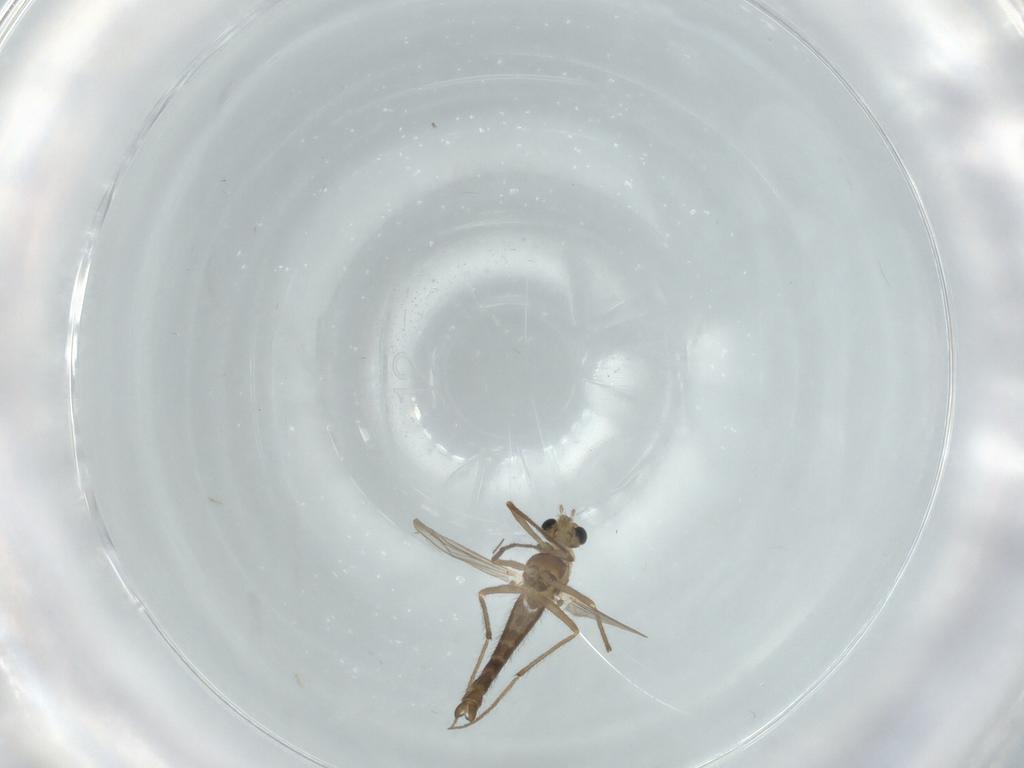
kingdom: Animalia
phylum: Arthropoda
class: Insecta
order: Diptera
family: Chironomidae
